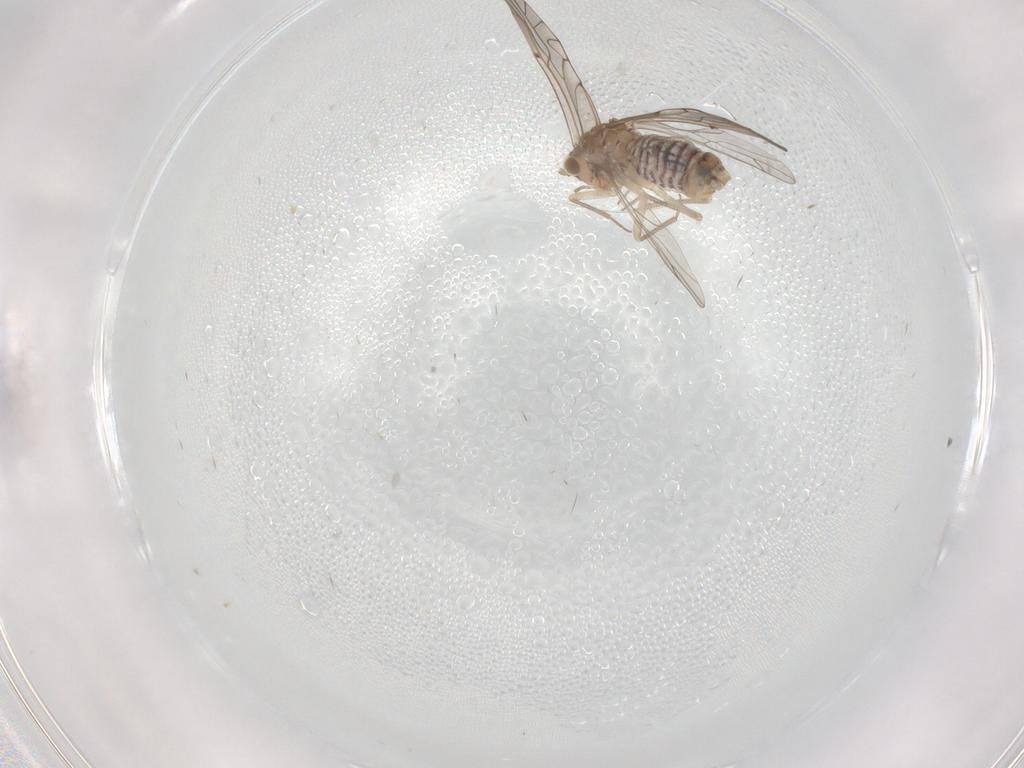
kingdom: Animalia
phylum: Arthropoda
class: Insecta
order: Psocodea
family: Lachesillidae
